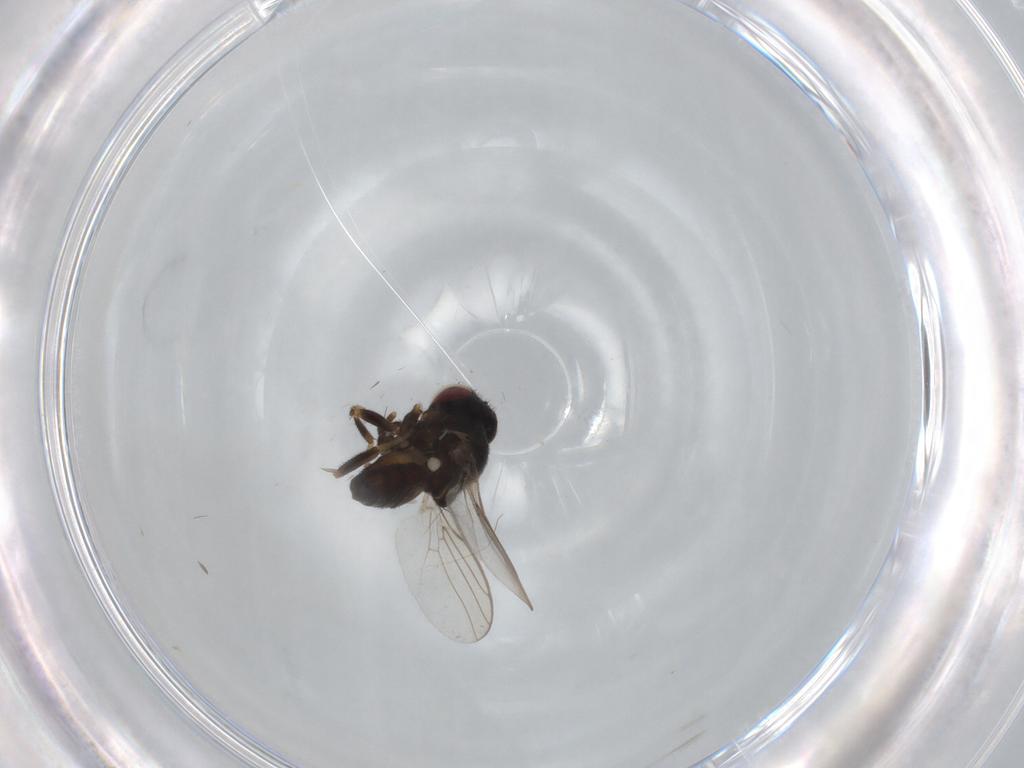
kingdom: Animalia
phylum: Arthropoda
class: Insecta
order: Diptera
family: Chloropidae
